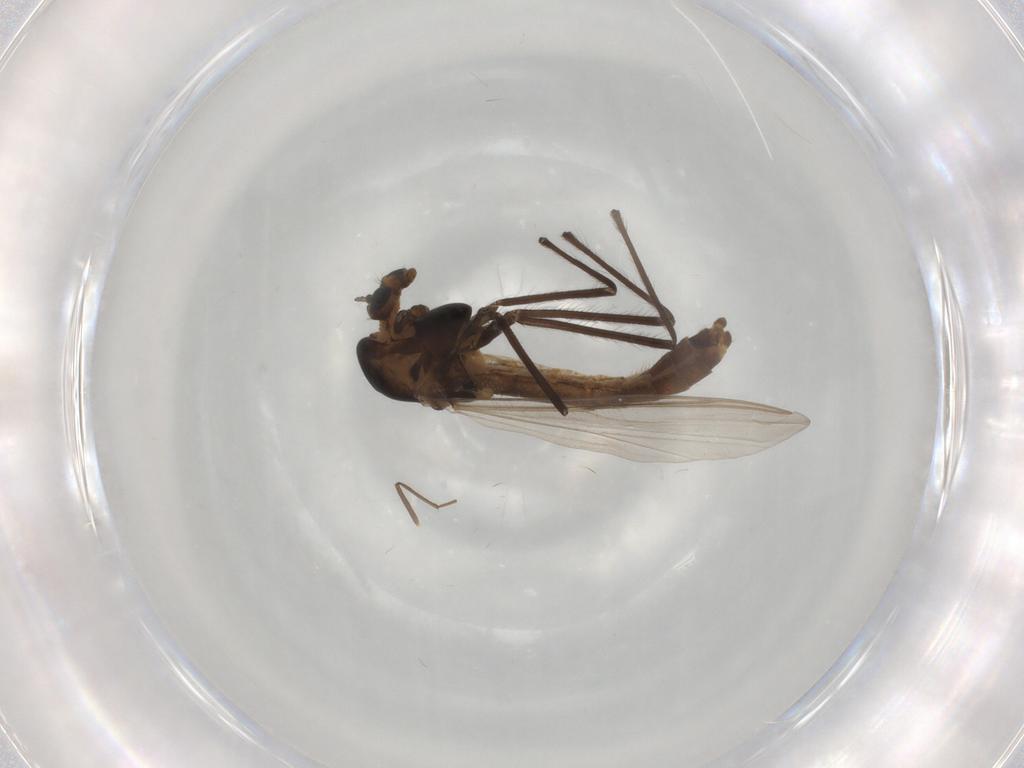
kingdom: Animalia
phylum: Arthropoda
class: Insecta
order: Diptera
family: Chironomidae
